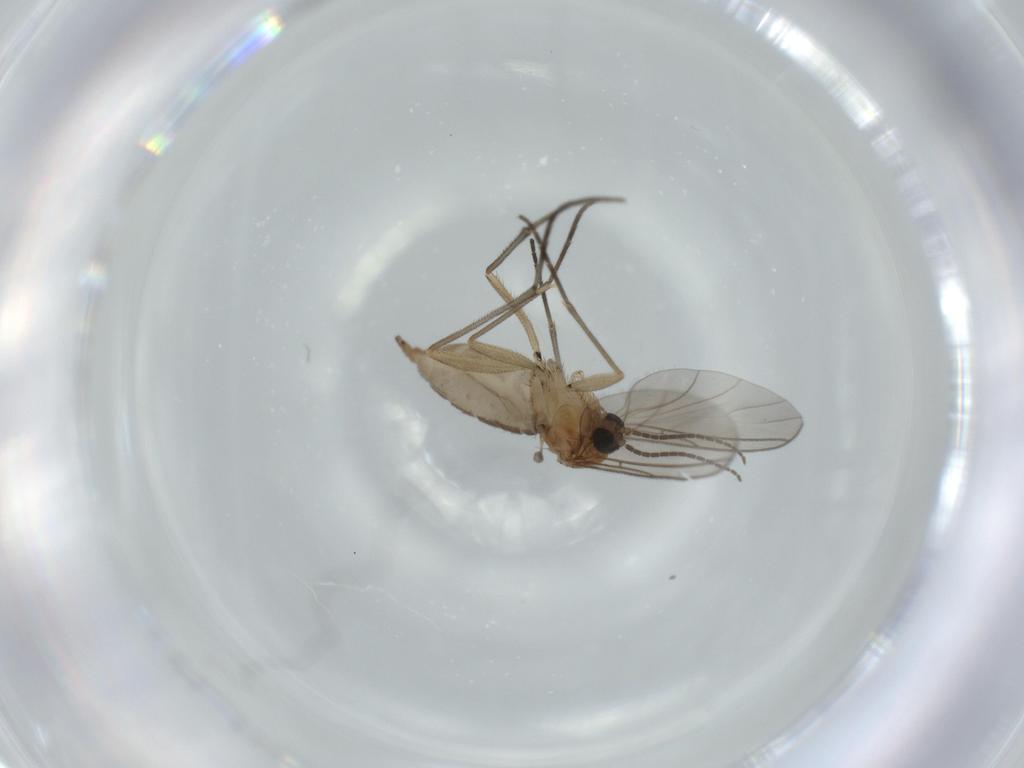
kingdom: Animalia
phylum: Arthropoda
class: Insecta
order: Diptera
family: Sciaridae
